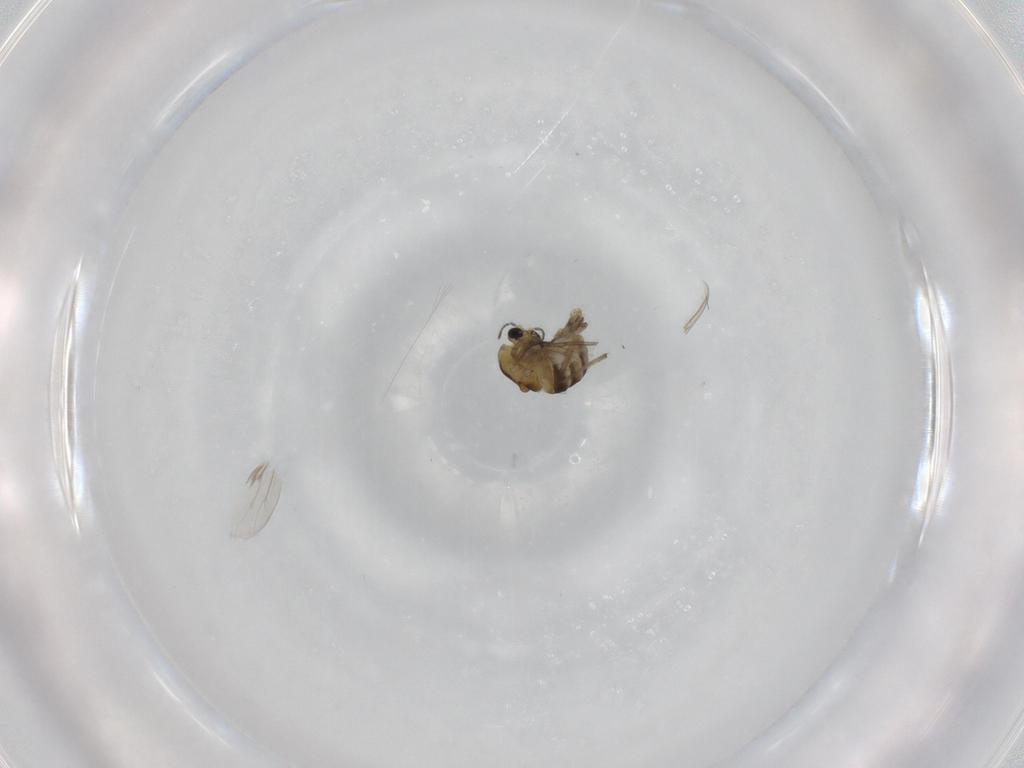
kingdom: Animalia
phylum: Arthropoda
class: Insecta
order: Diptera
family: Chironomidae
